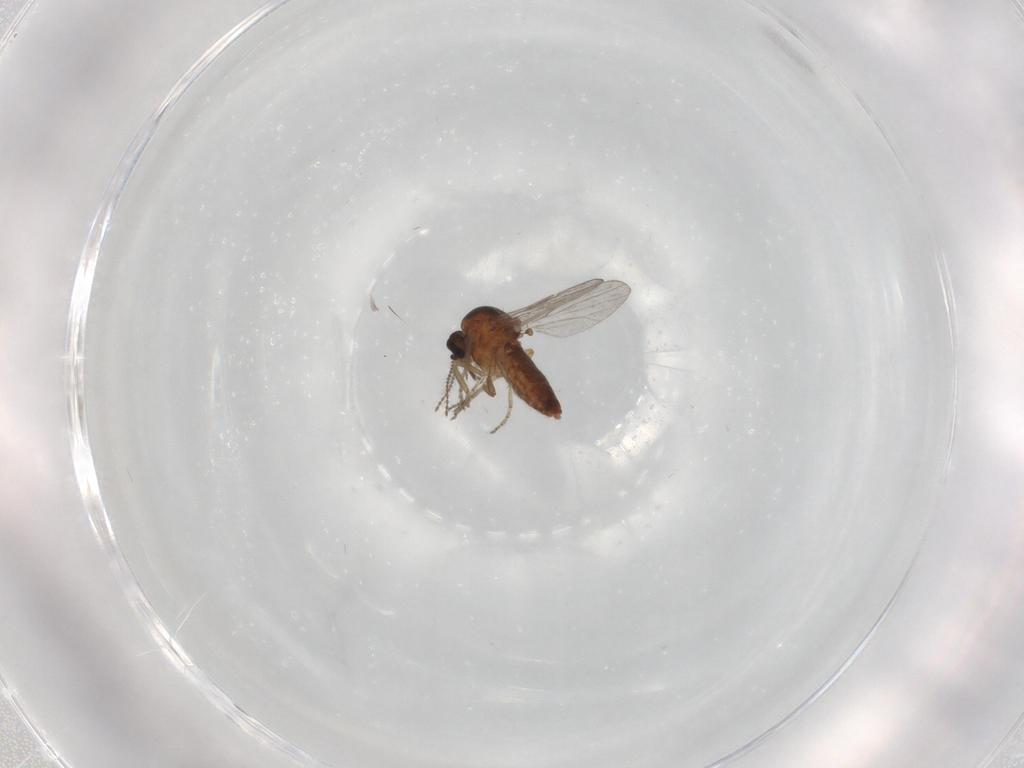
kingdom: Animalia
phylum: Arthropoda
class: Insecta
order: Diptera
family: Ceratopogonidae
